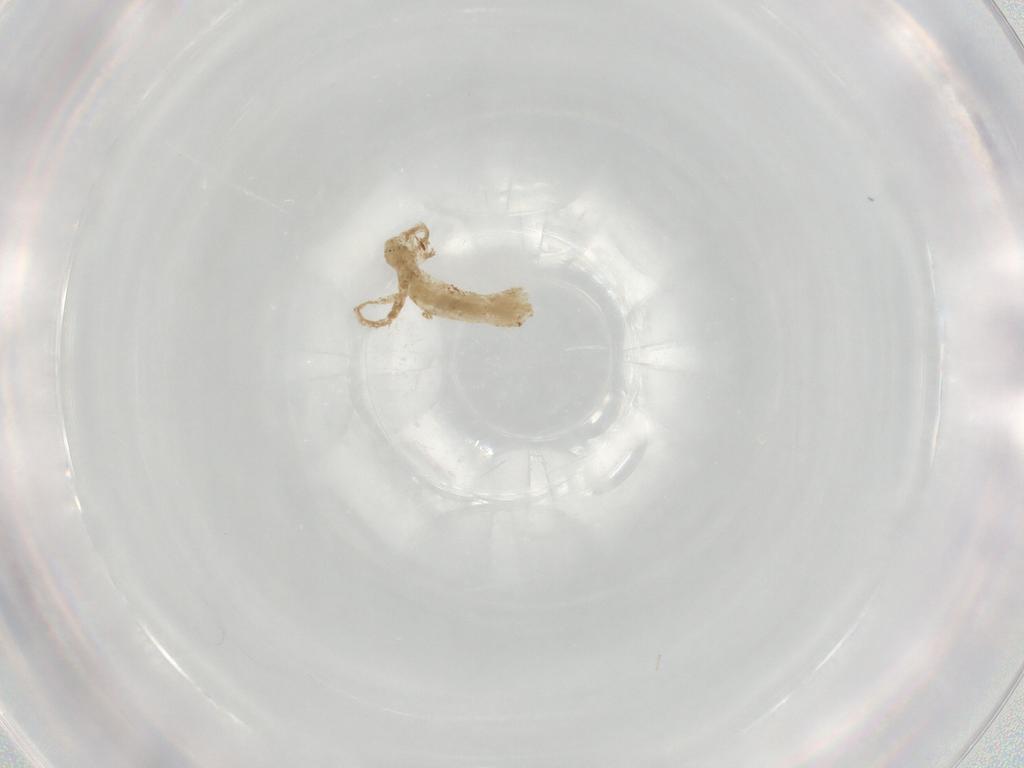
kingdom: Animalia
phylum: Arthropoda
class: Insecta
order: Diptera
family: Chironomidae
